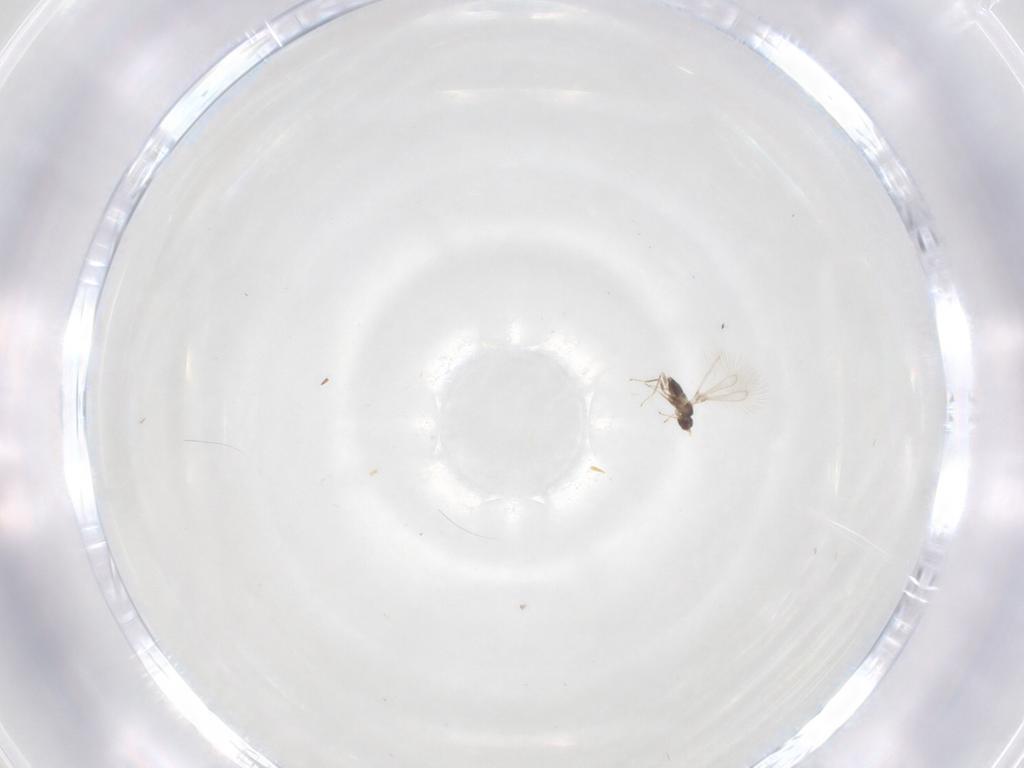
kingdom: Animalia
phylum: Arthropoda
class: Insecta
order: Hymenoptera
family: Mymaridae
